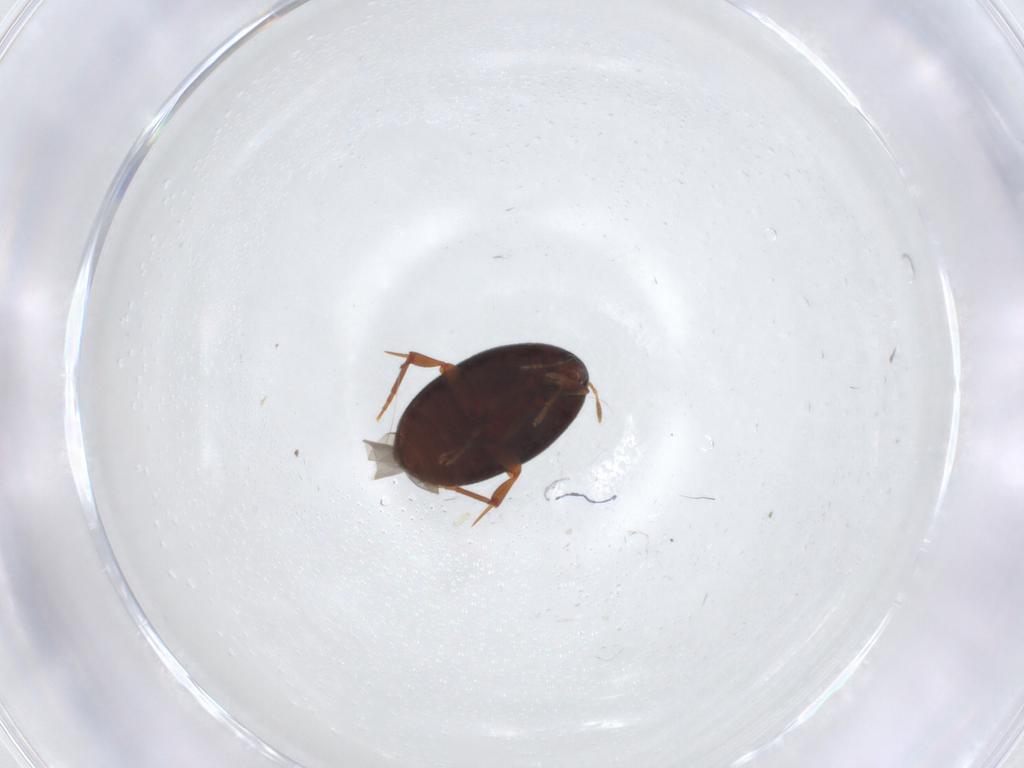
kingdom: Animalia
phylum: Arthropoda
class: Insecta
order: Coleoptera
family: Melandryidae
